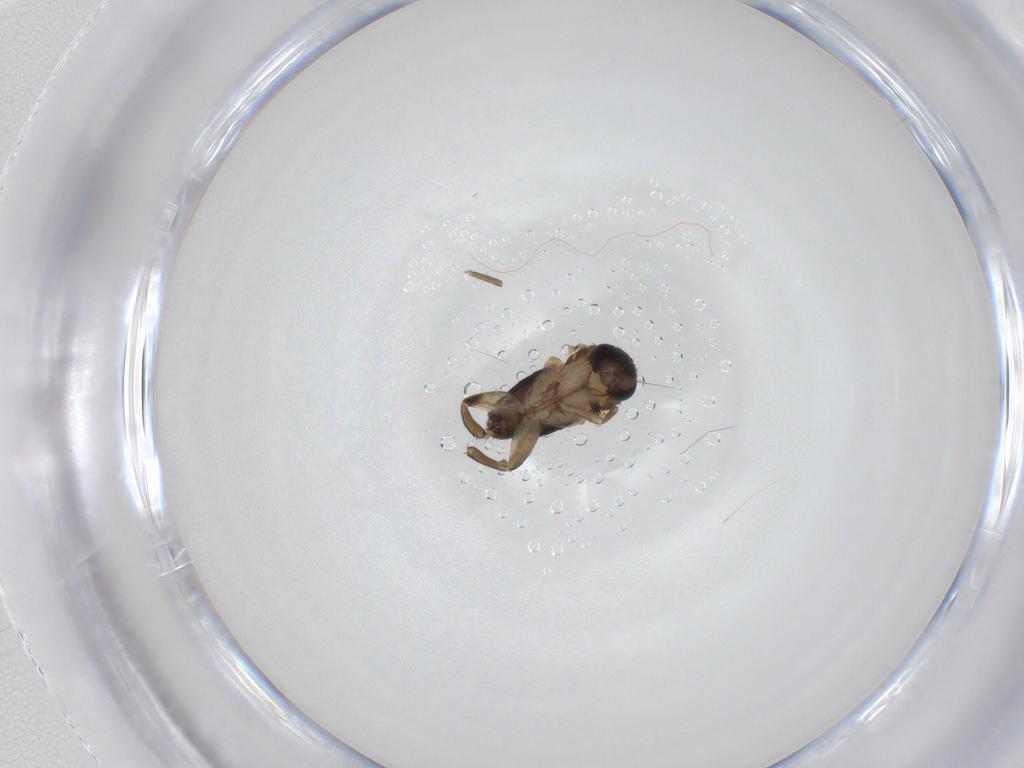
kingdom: Animalia
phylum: Arthropoda
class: Insecta
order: Diptera
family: Phoridae
